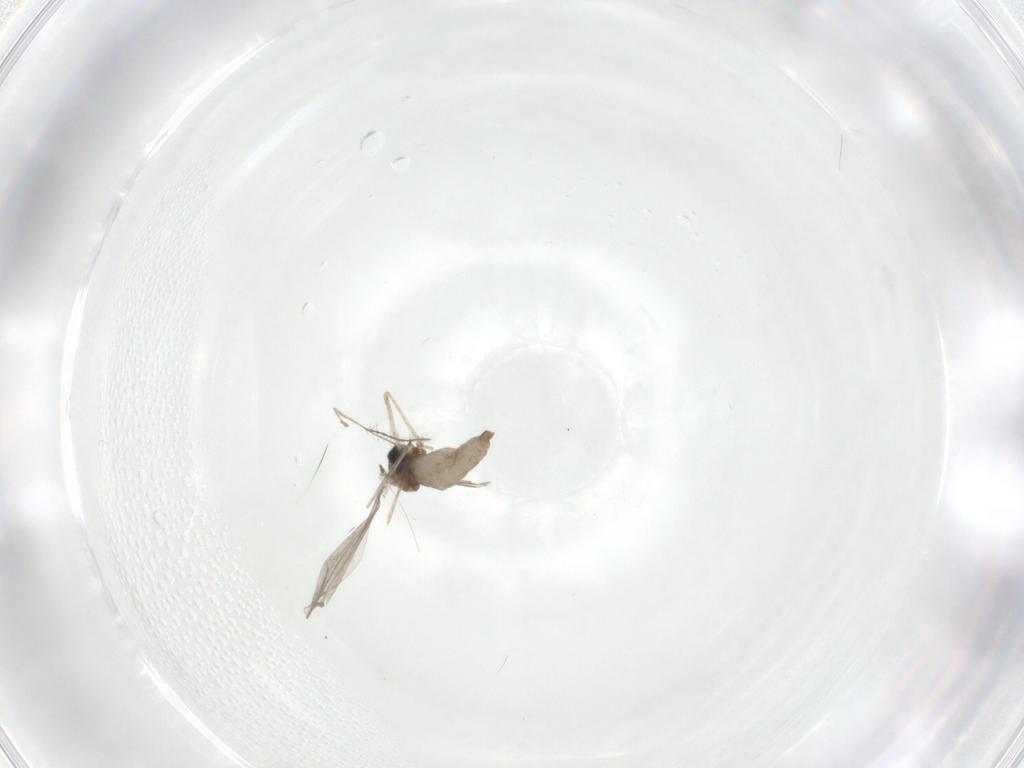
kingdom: Animalia
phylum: Arthropoda
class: Insecta
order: Diptera
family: Cecidomyiidae
